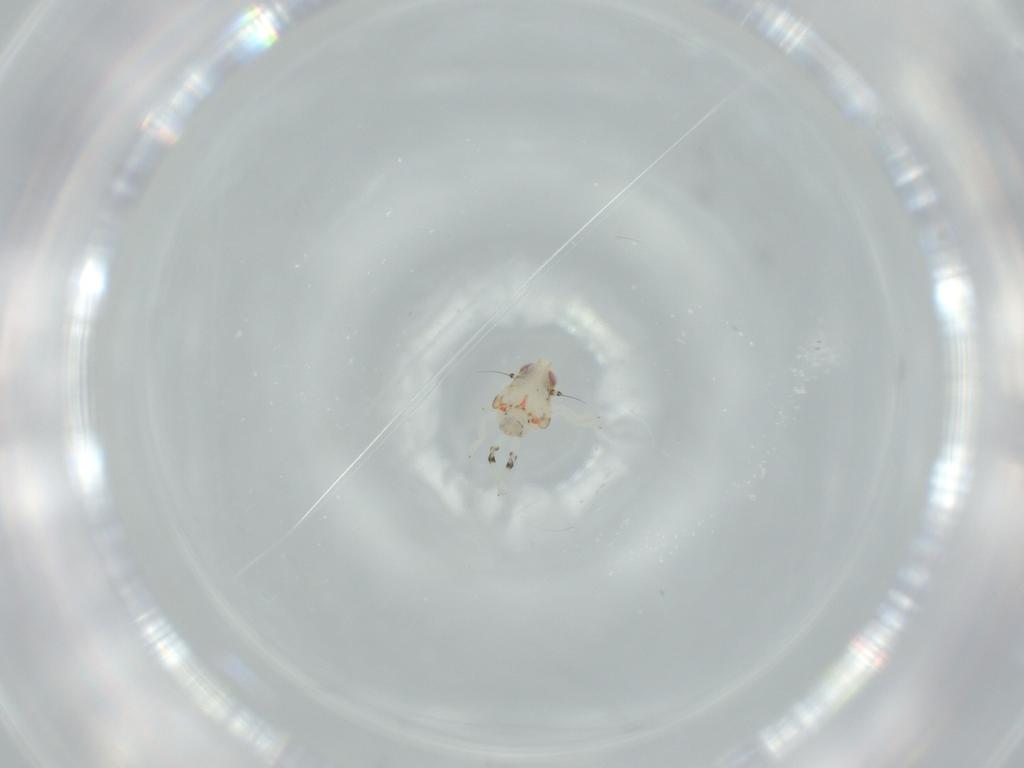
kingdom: Animalia
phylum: Arthropoda
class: Insecta
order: Hemiptera
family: Nogodinidae
